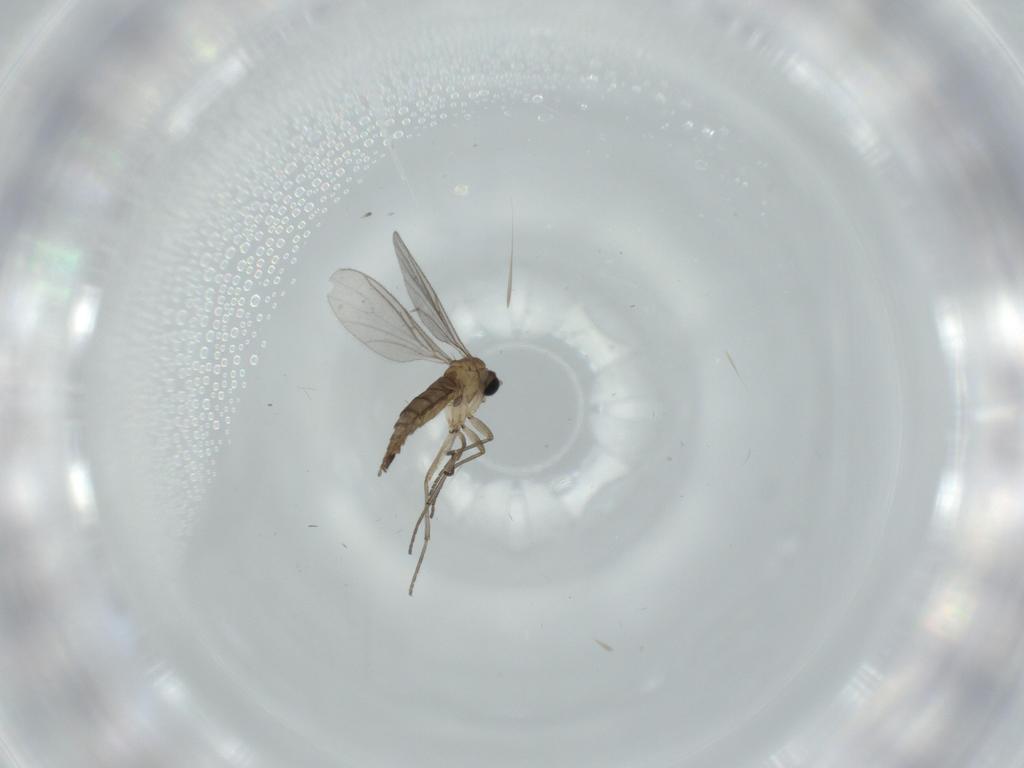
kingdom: Animalia
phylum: Arthropoda
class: Insecta
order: Diptera
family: Sciaridae
